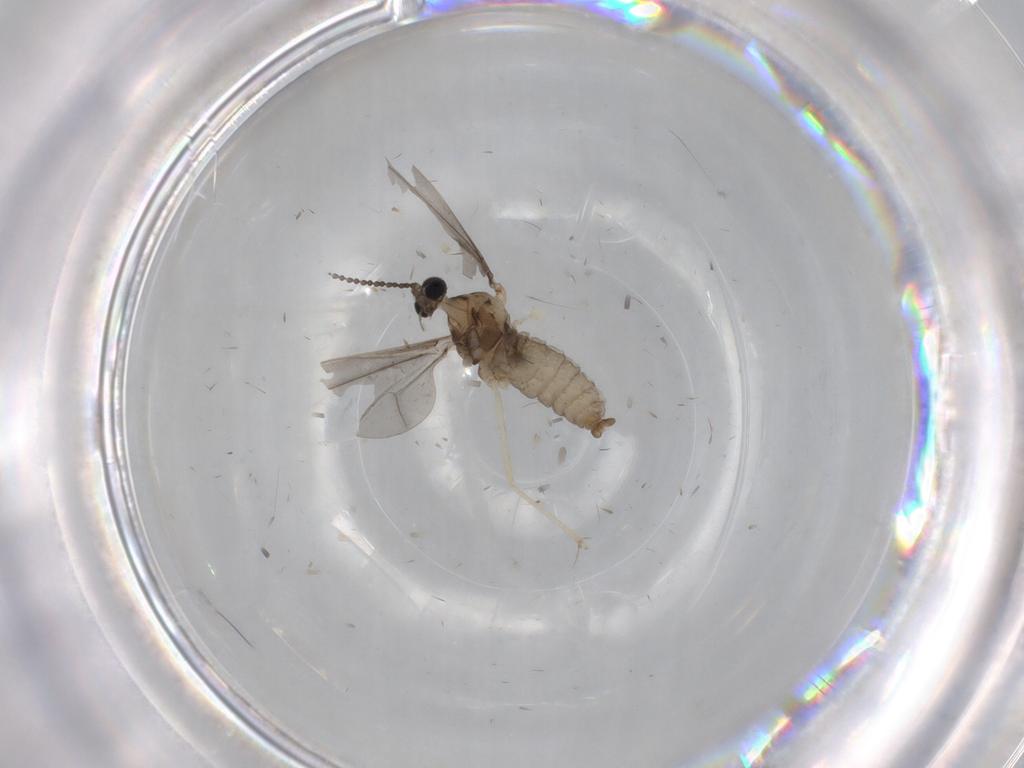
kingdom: Animalia
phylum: Arthropoda
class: Insecta
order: Diptera
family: Cecidomyiidae
